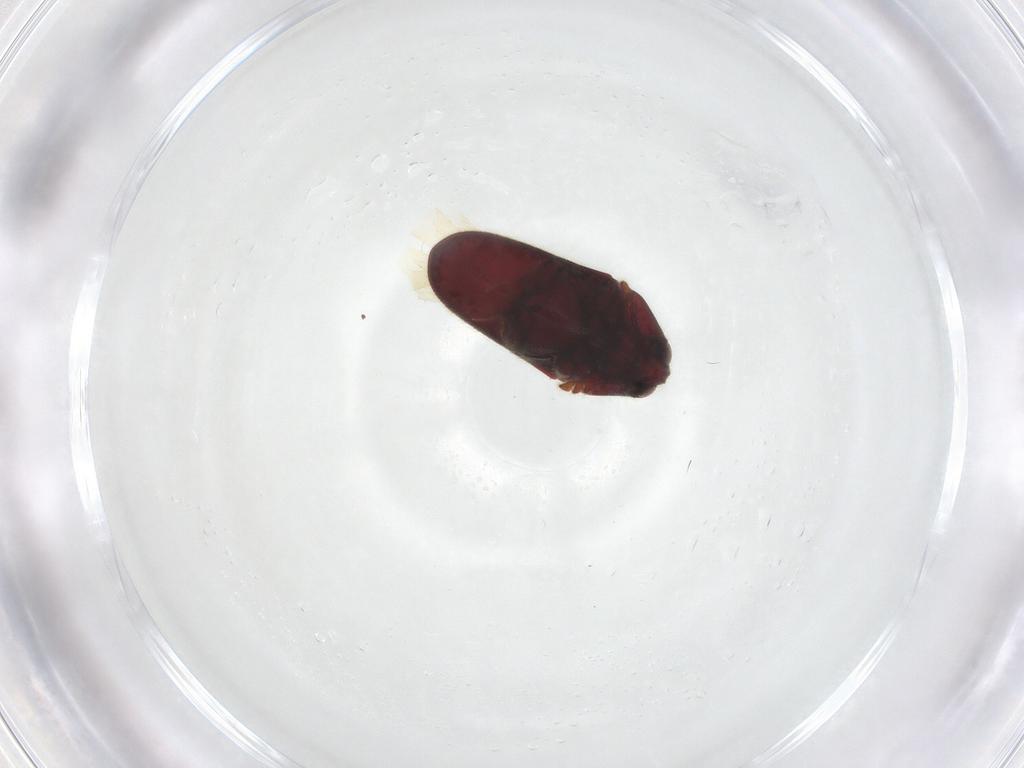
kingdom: Animalia
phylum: Arthropoda
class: Insecta
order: Coleoptera
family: Throscidae
